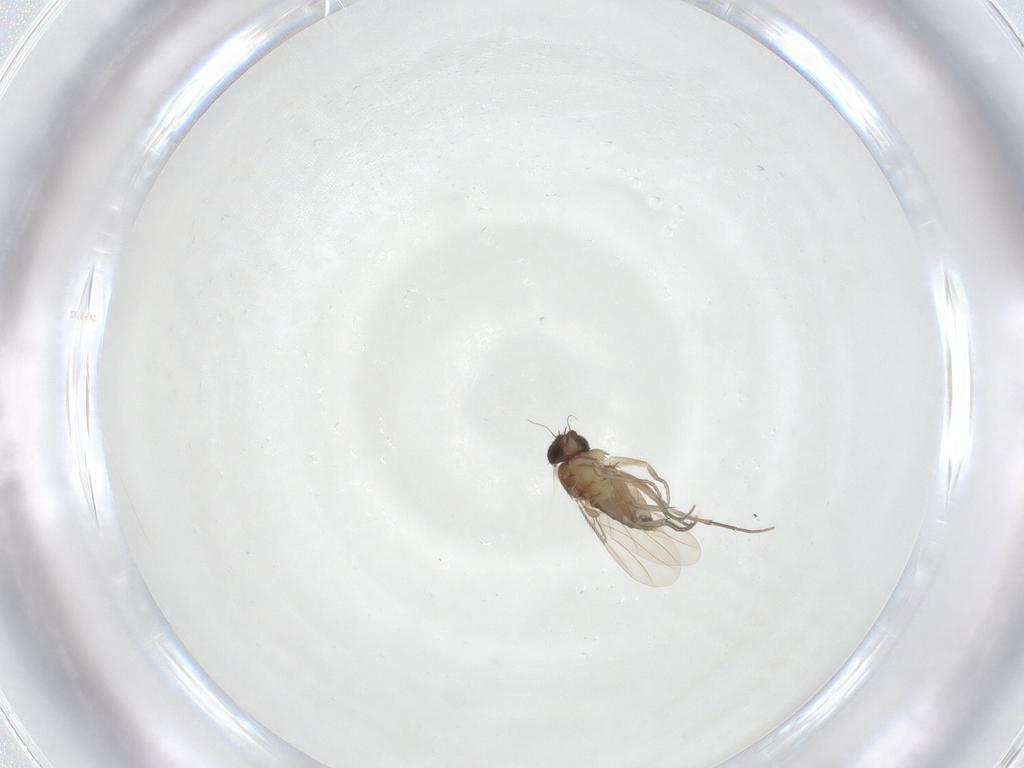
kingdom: Animalia
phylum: Arthropoda
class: Insecta
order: Diptera
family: Phoridae
